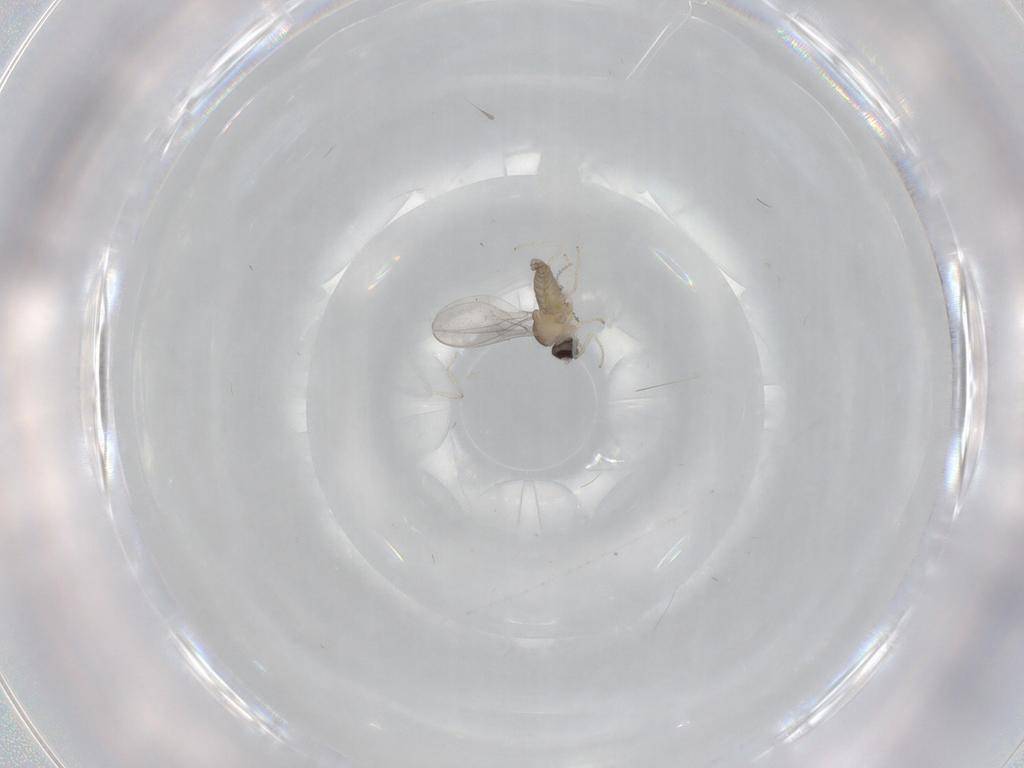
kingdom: Animalia
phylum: Arthropoda
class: Insecta
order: Diptera
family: Cecidomyiidae
